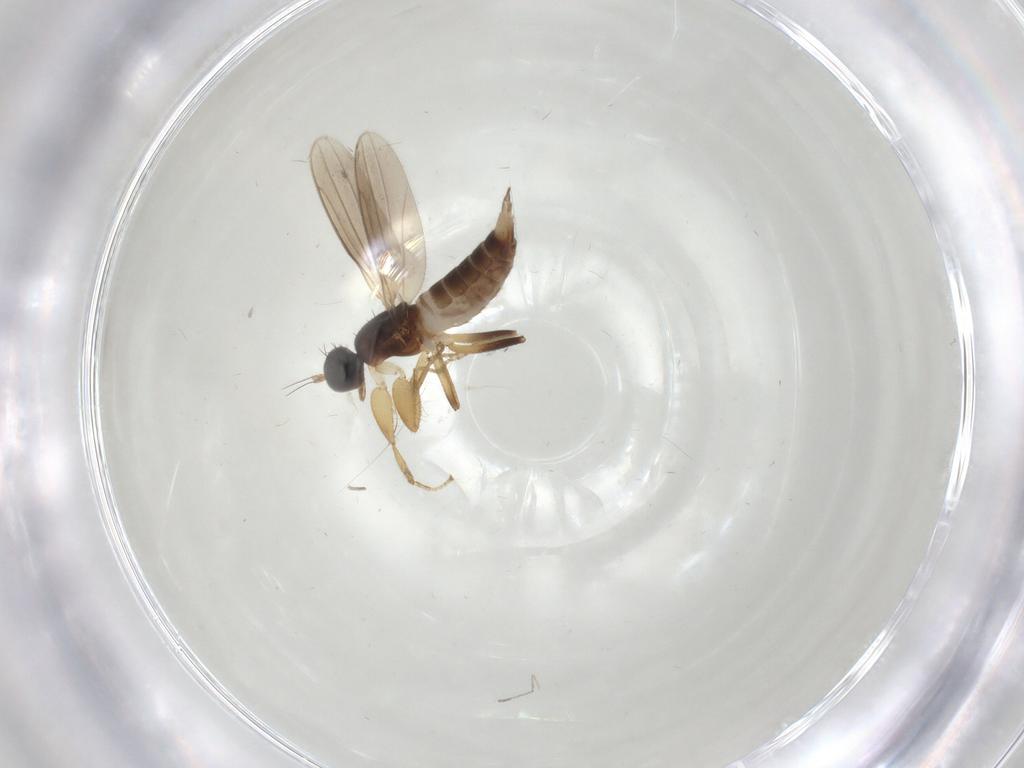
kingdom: Animalia
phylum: Arthropoda
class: Insecta
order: Diptera
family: Hybotidae
